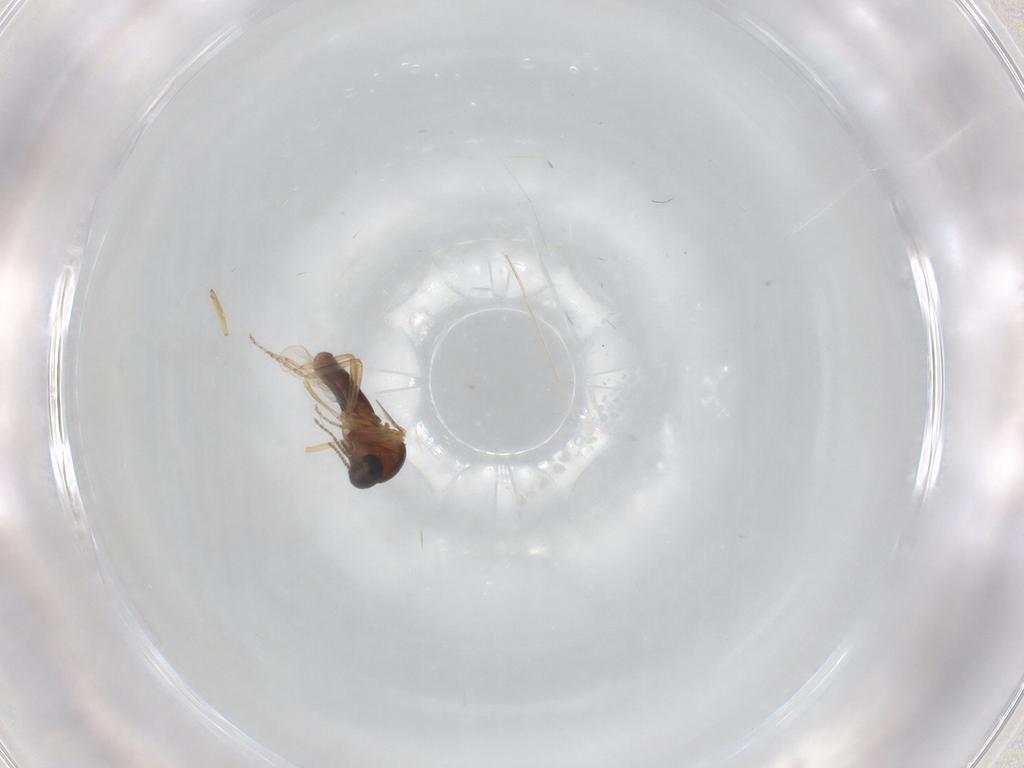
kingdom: Animalia
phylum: Arthropoda
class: Insecta
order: Diptera
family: Ceratopogonidae
